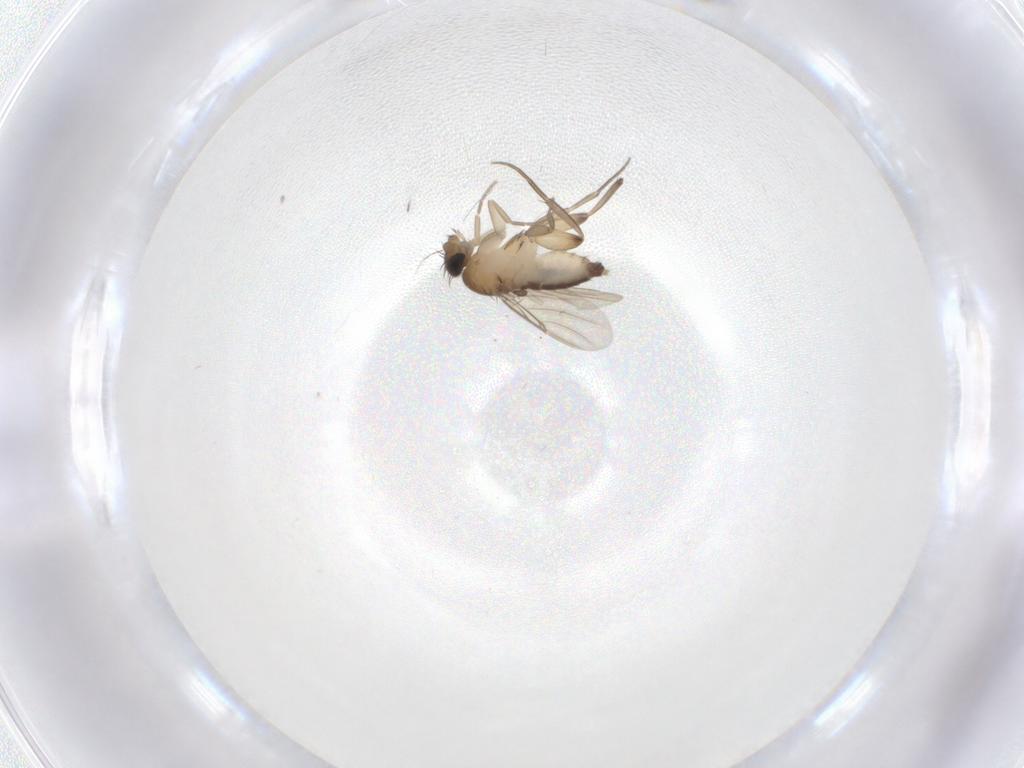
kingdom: Animalia
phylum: Arthropoda
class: Insecta
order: Diptera
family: Phoridae
